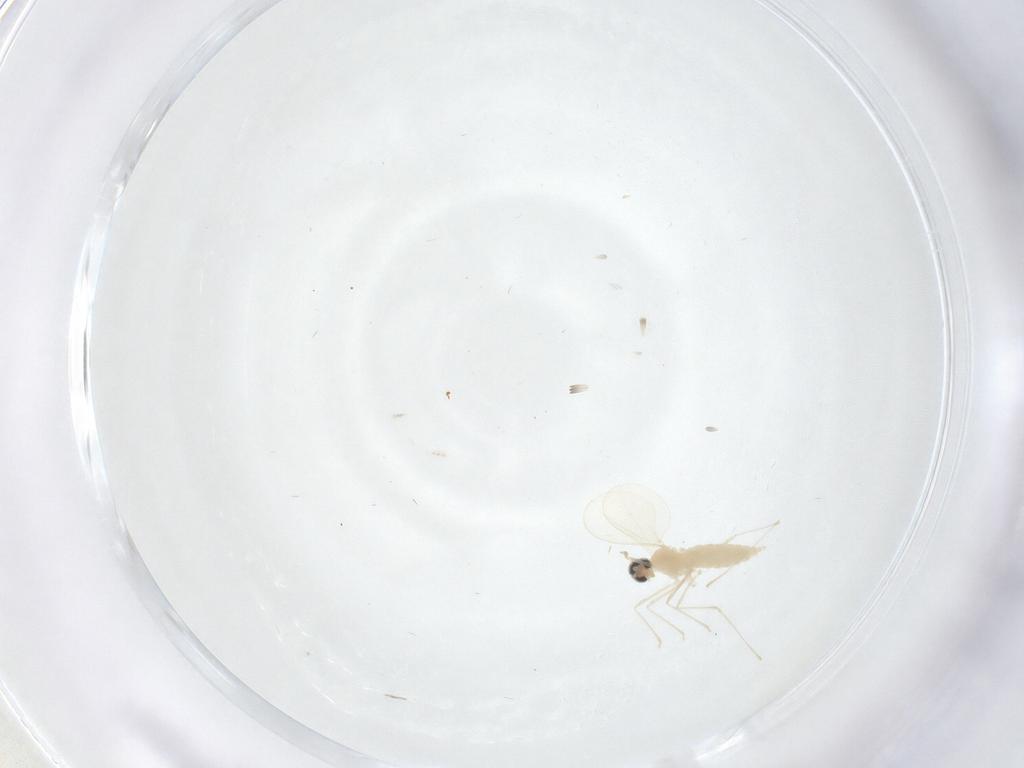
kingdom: Animalia
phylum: Arthropoda
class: Insecta
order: Diptera
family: Cecidomyiidae
